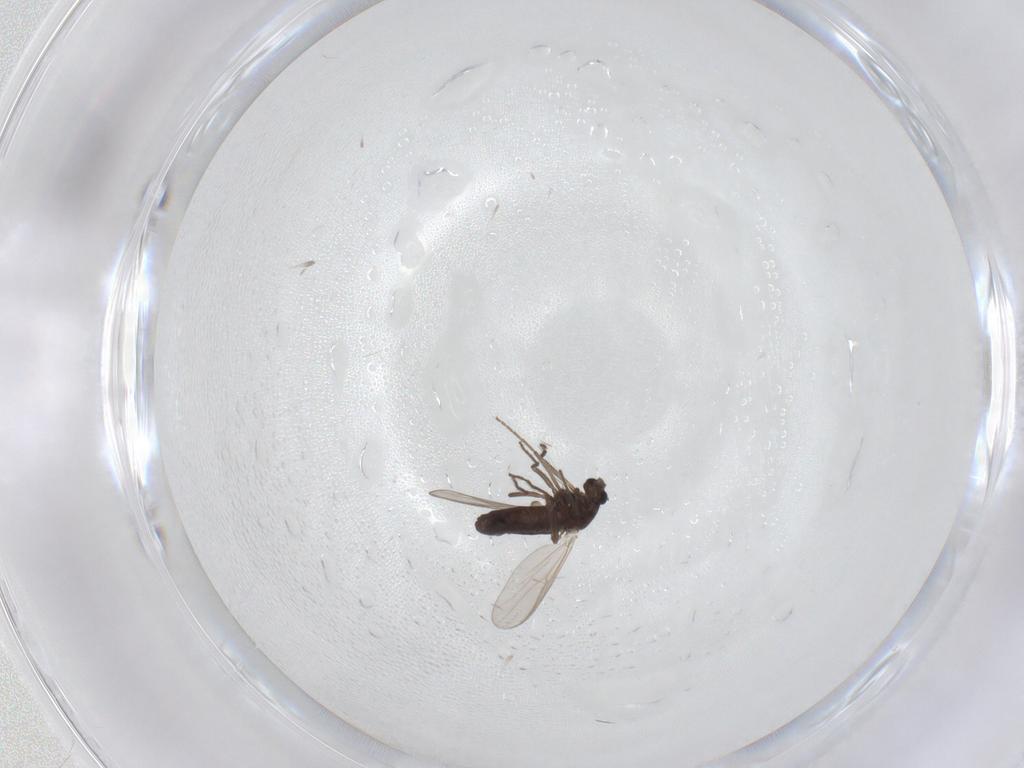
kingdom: Animalia
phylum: Arthropoda
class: Insecta
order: Diptera
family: Chironomidae
